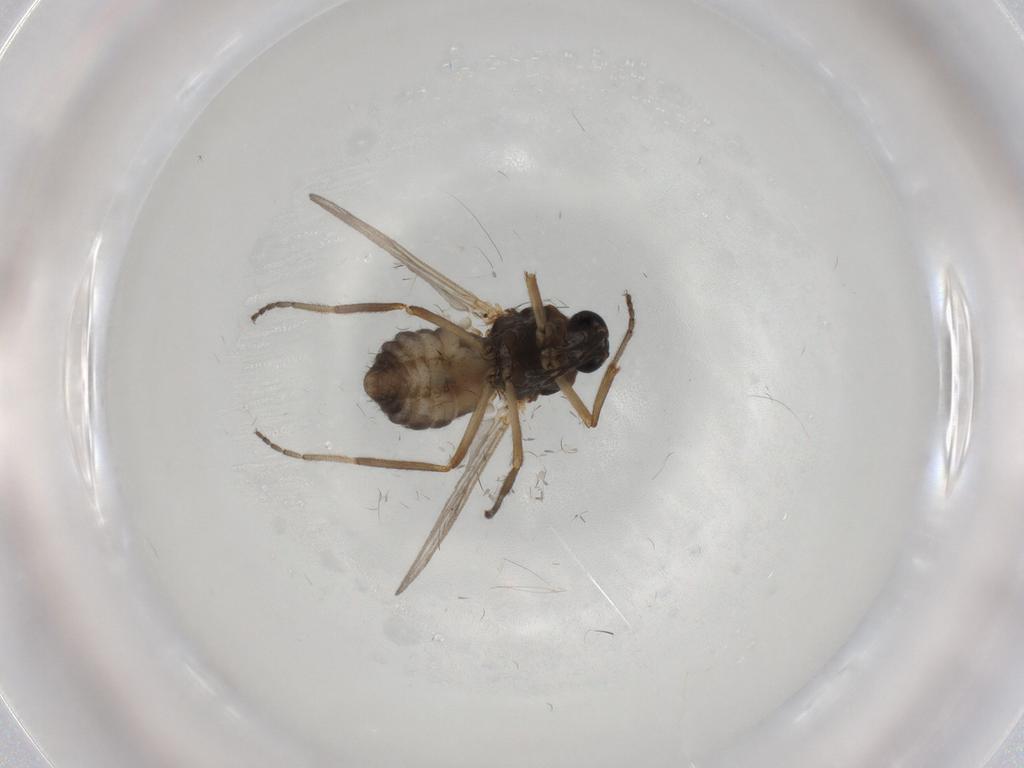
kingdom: Animalia
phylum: Arthropoda
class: Insecta
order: Diptera
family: Ceratopogonidae
